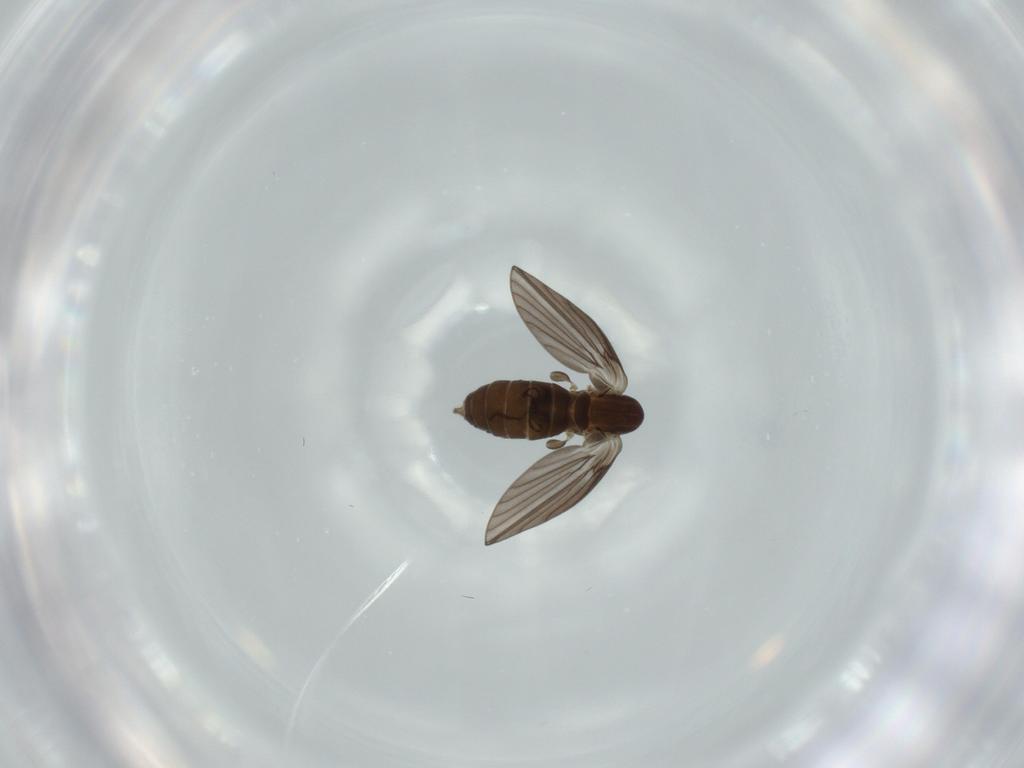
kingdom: Animalia
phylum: Arthropoda
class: Insecta
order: Diptera
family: Psychodidae
